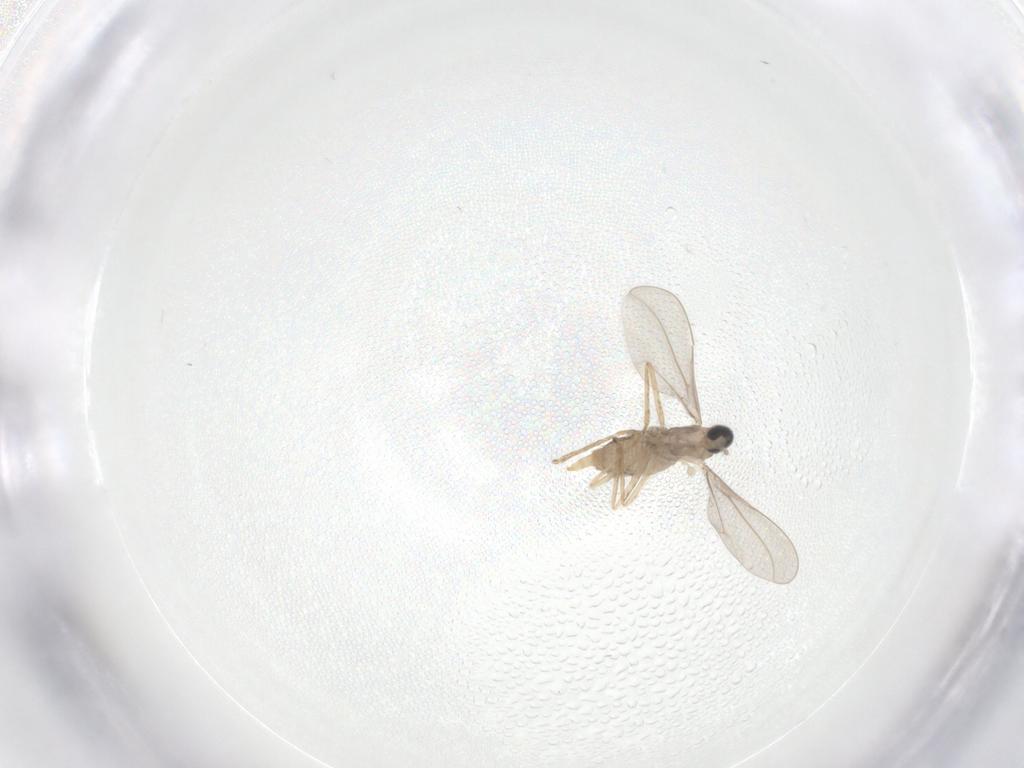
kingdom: Animalia
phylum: Arthropoda
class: Insecta
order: Diptera
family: Cecidomyiidae
